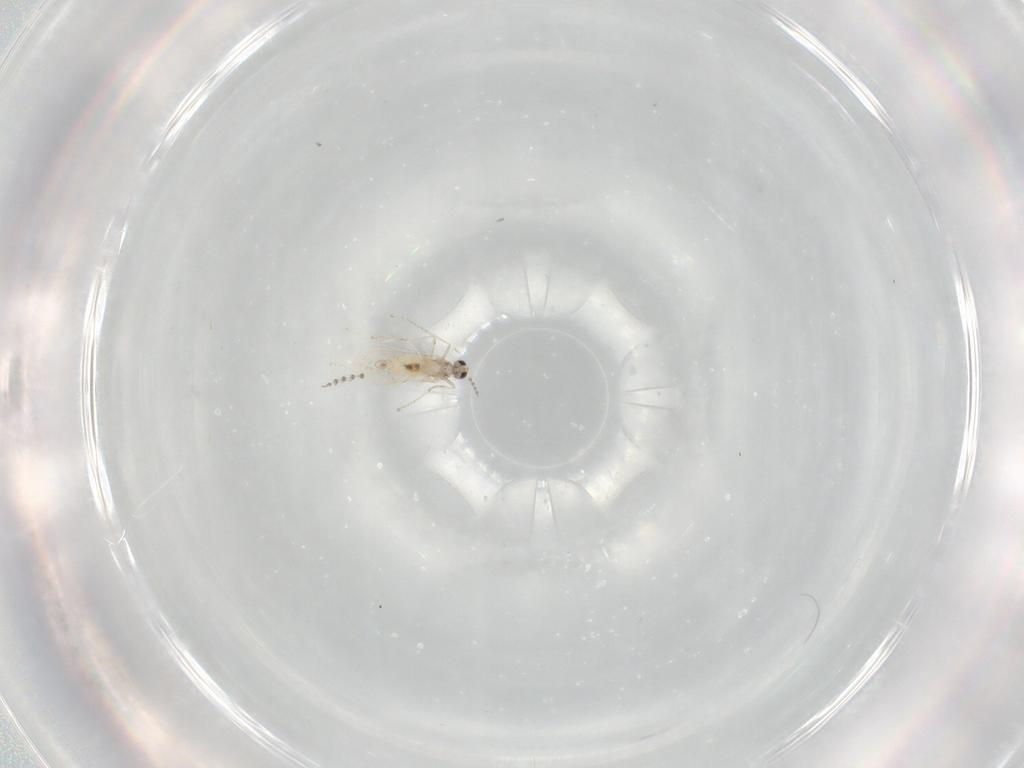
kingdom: Animalia
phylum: Arthropoda
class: Insecta
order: Diptera
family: Cecidomyiidae
